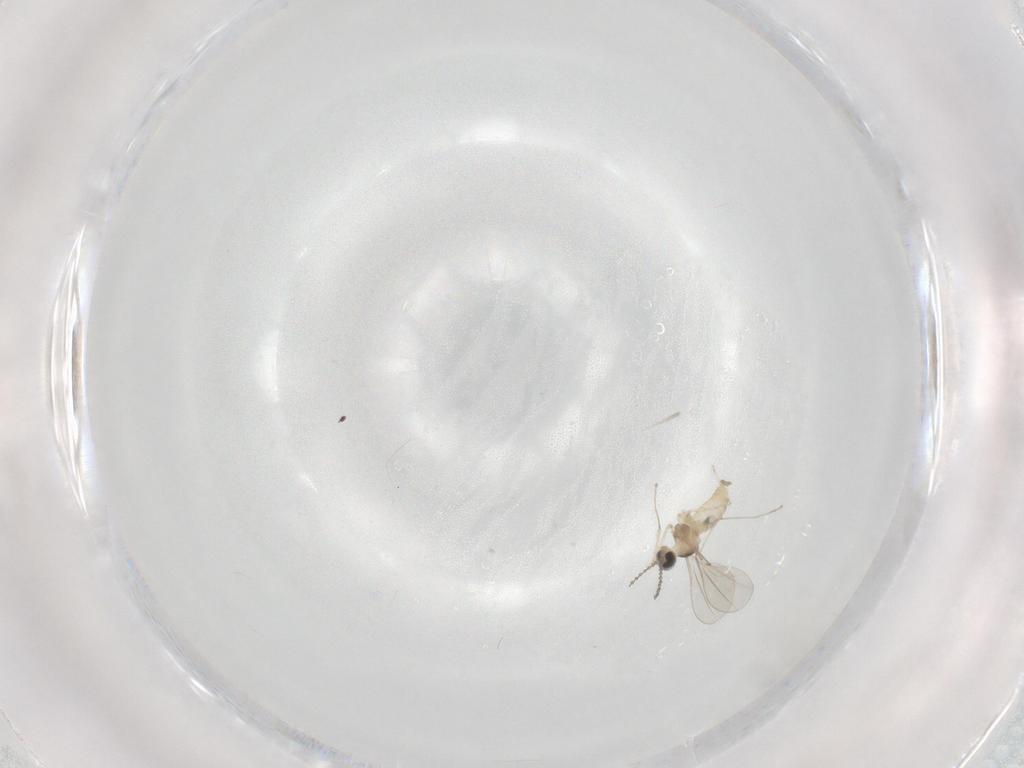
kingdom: Animalia
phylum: Arthropoda
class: Insecta
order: Diptera
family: Cecidomyiidae
